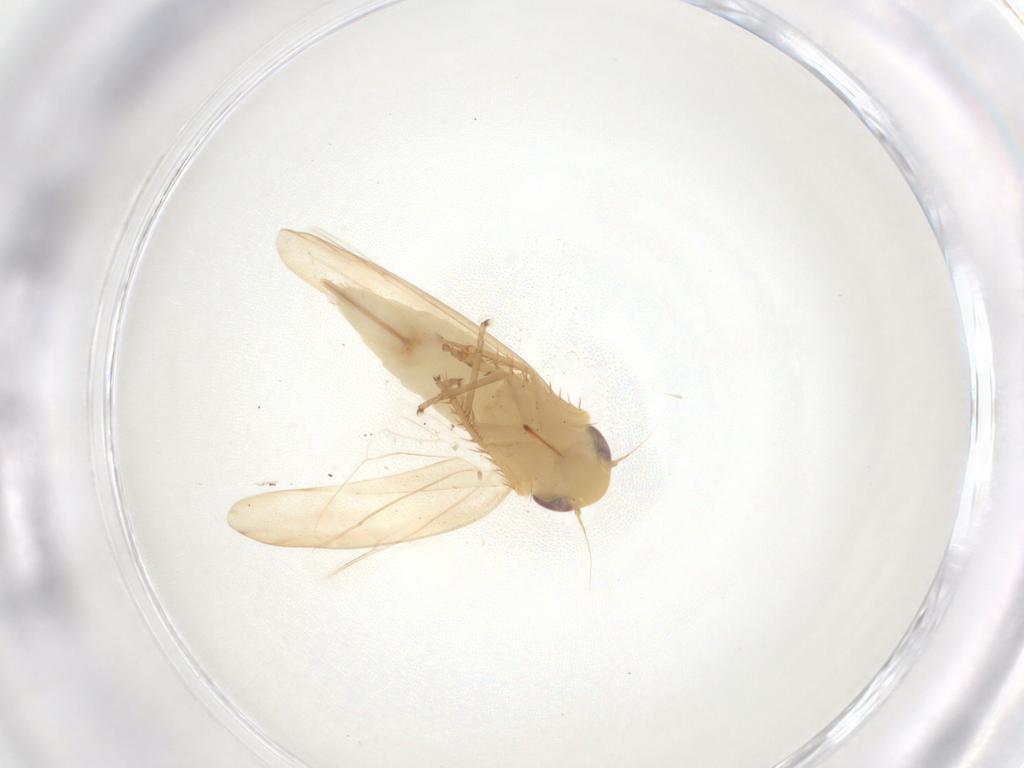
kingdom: Animalia
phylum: Arthropoda
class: Insecta
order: Hemiptera
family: Cicadellidae
